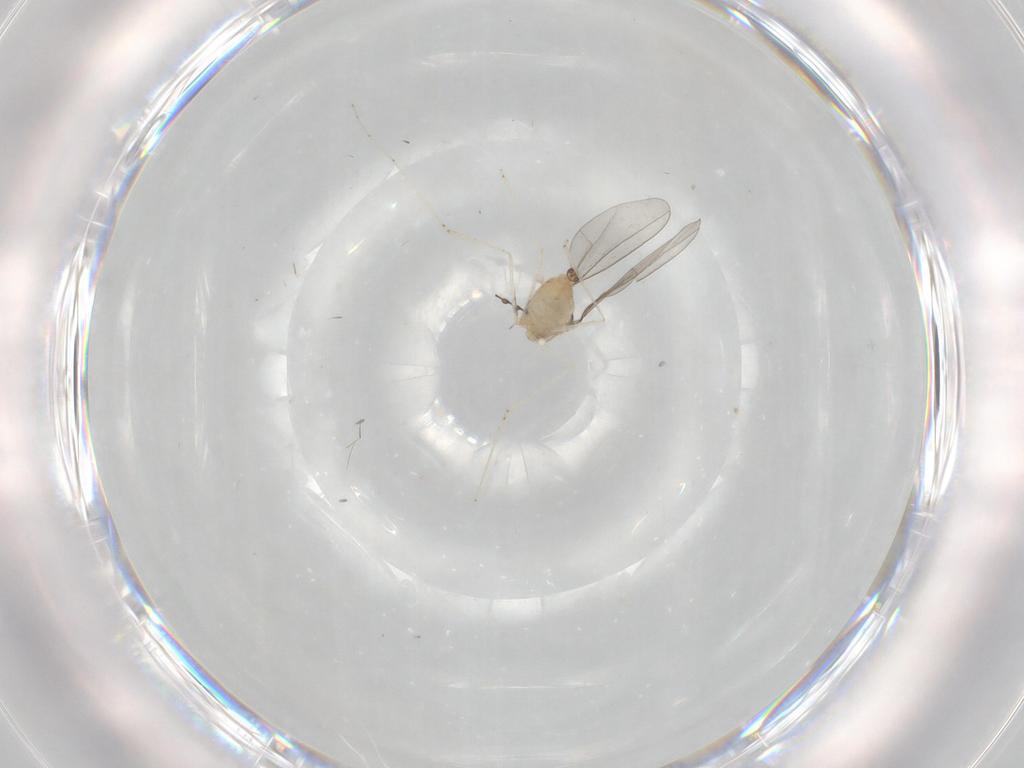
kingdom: Animalia
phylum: Arthropoda
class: Insecta
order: Diptera
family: Cecidomyiidae
